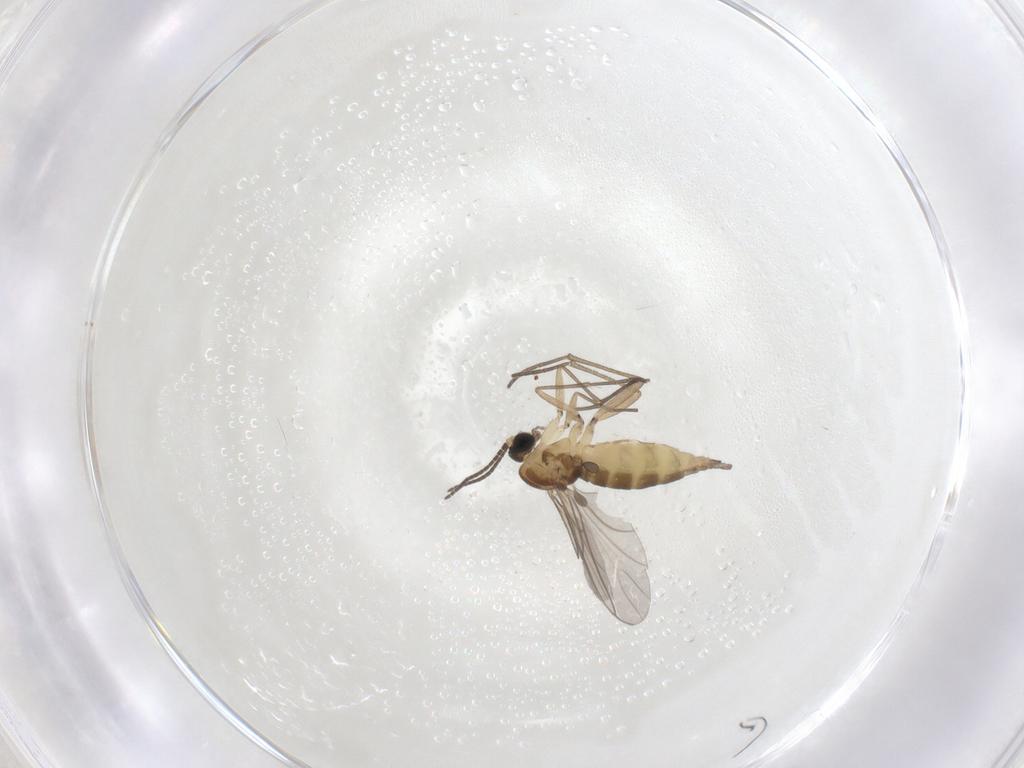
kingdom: Animalia
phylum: Arthropoda
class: Insecta
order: Diptera
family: Sciaridae
